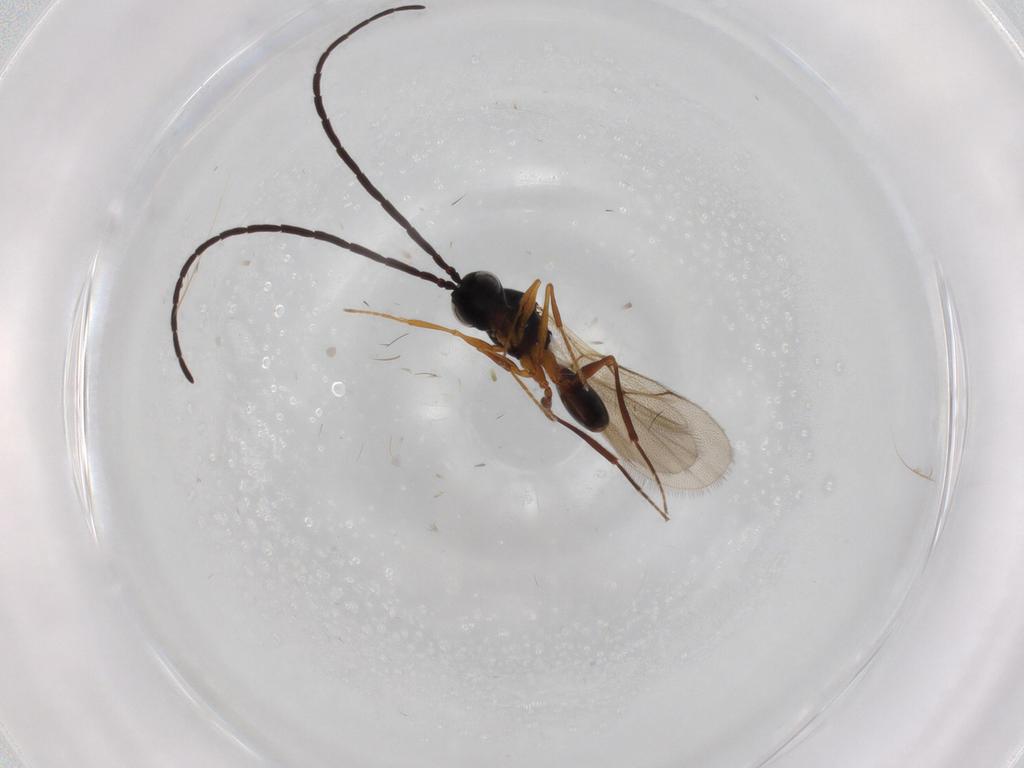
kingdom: Animalia
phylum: Arthropoda
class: Insecta
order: Hymenoptera
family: Figitidae
